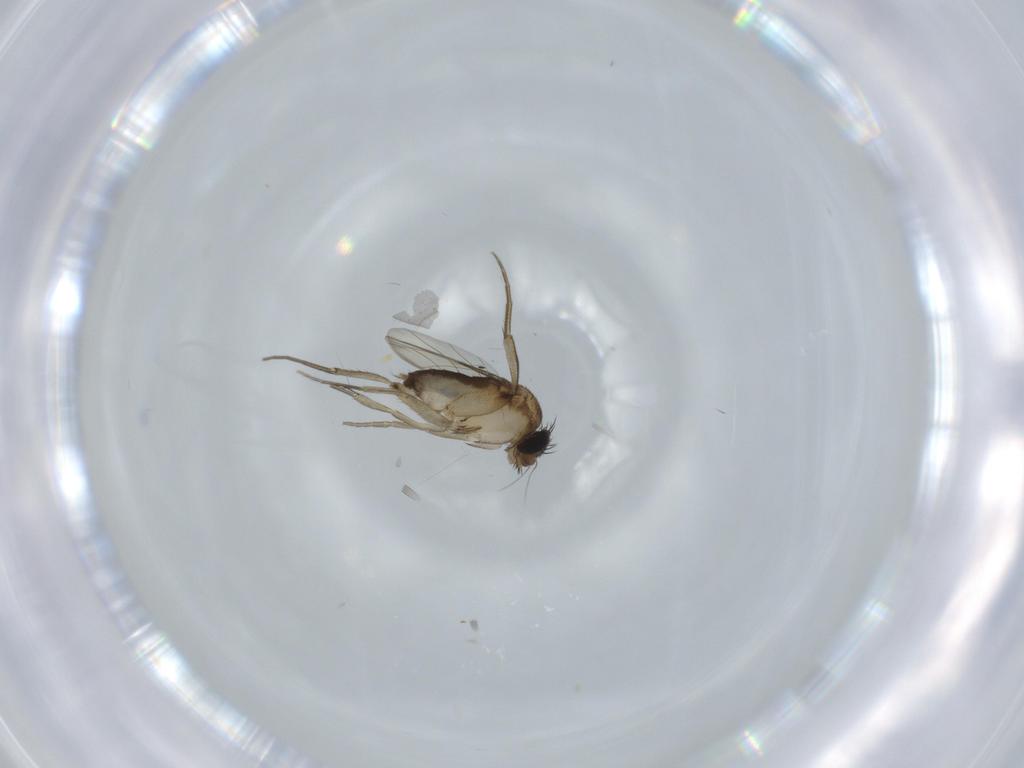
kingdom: Animalia
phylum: Arthropoda
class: Insecta
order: Diptera
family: Phoridae
